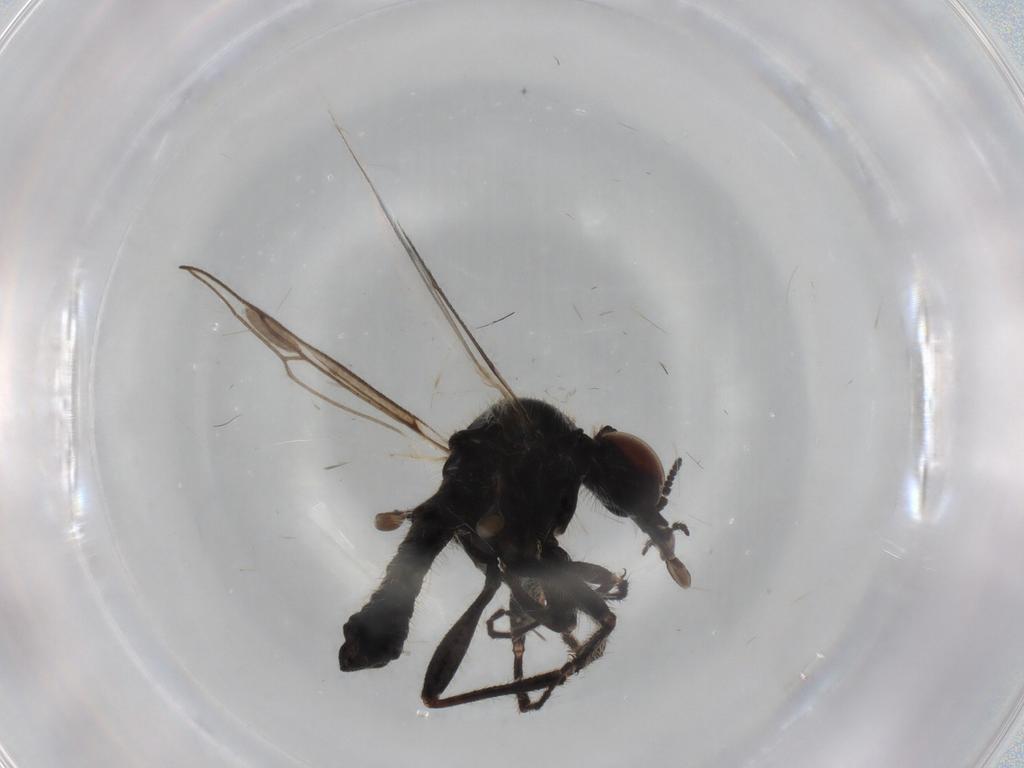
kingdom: Animalia
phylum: Arthropoda
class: Insecta
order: Diptera
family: Bibionidae
